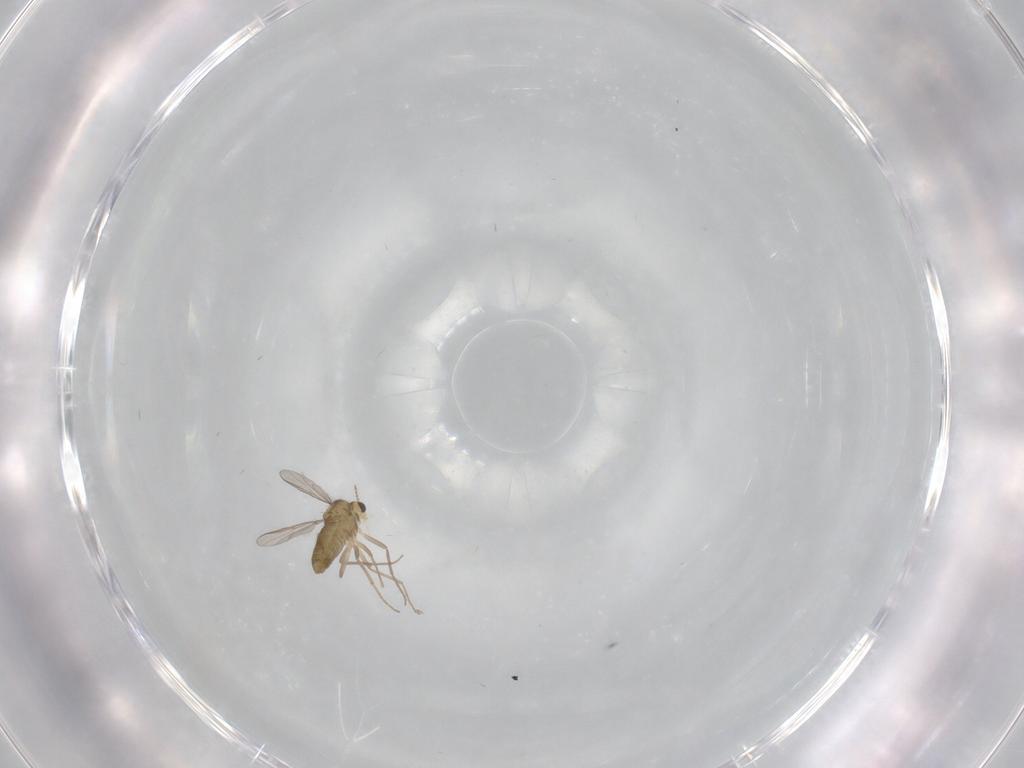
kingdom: Animalia
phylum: Arthropoda
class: Insecta
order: Diptera
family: Chironomidae
